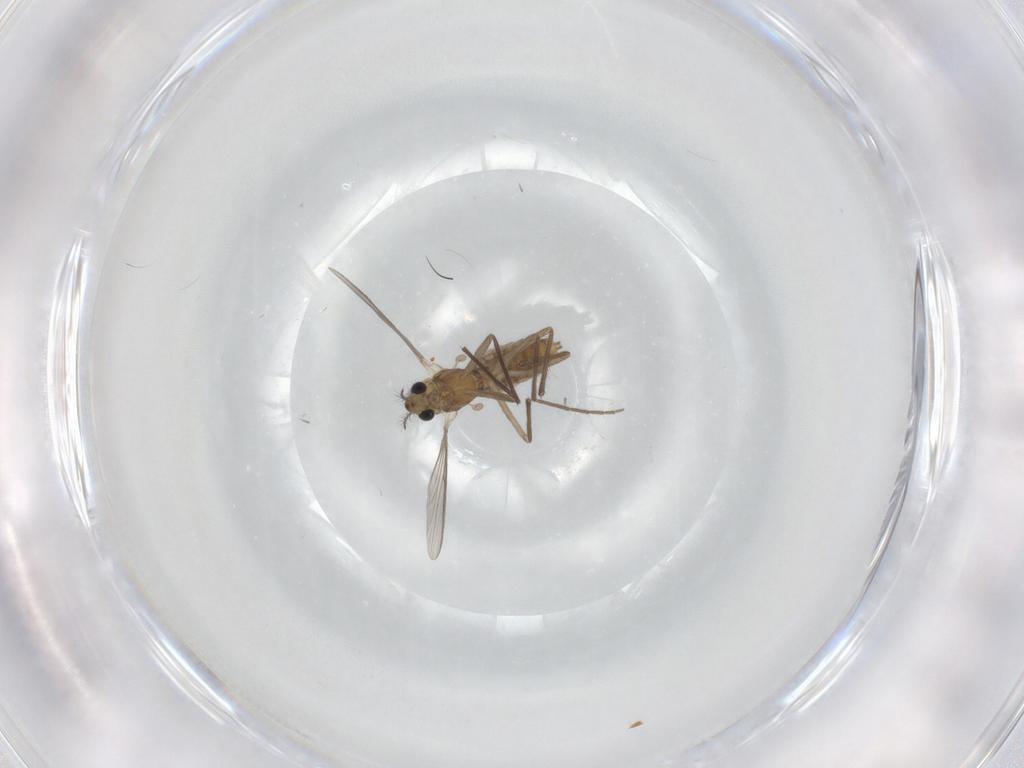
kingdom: Animalia
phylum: Arthropoda
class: Insecta
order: Diptera
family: Chironomidae
